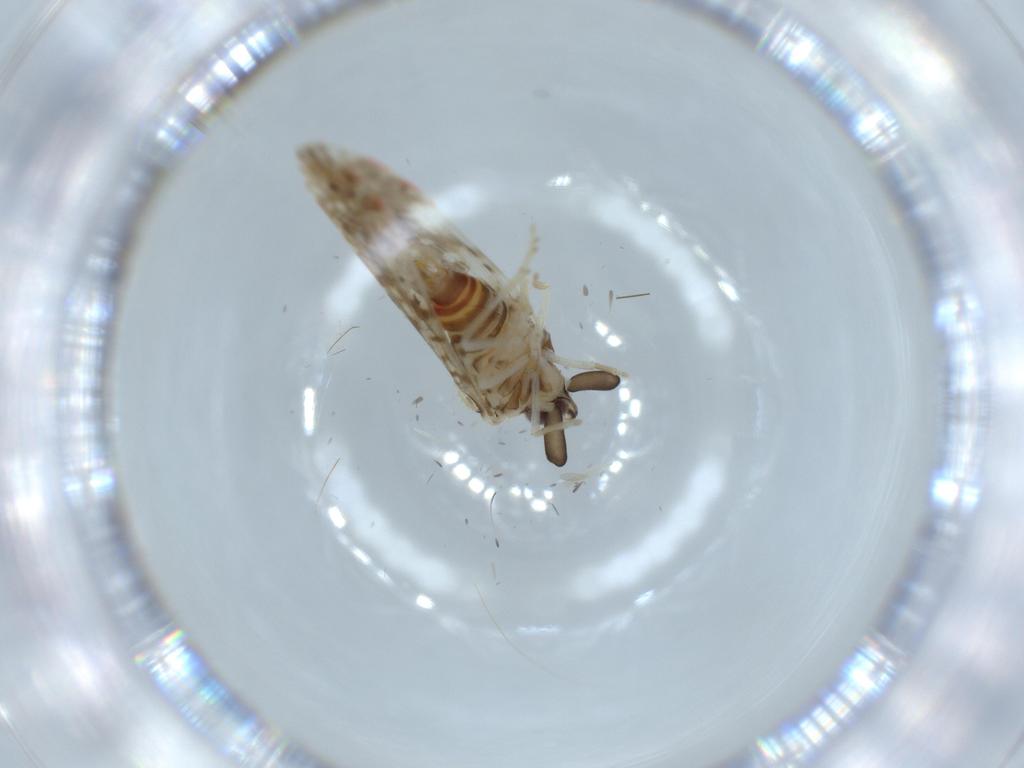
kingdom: Animalia
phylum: Arthropoda
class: Insecta
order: Hemiptera
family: Derbidae
